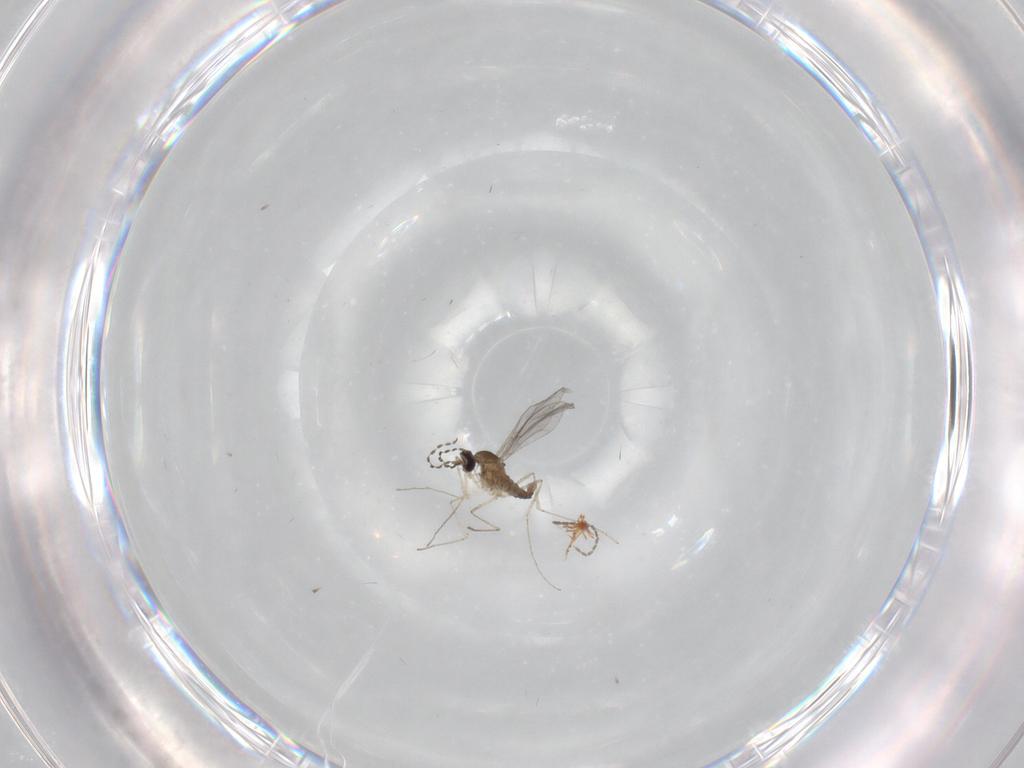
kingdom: Animalia
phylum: Arthropoda
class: Insecta
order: Diptera
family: Cecidomyiidae
